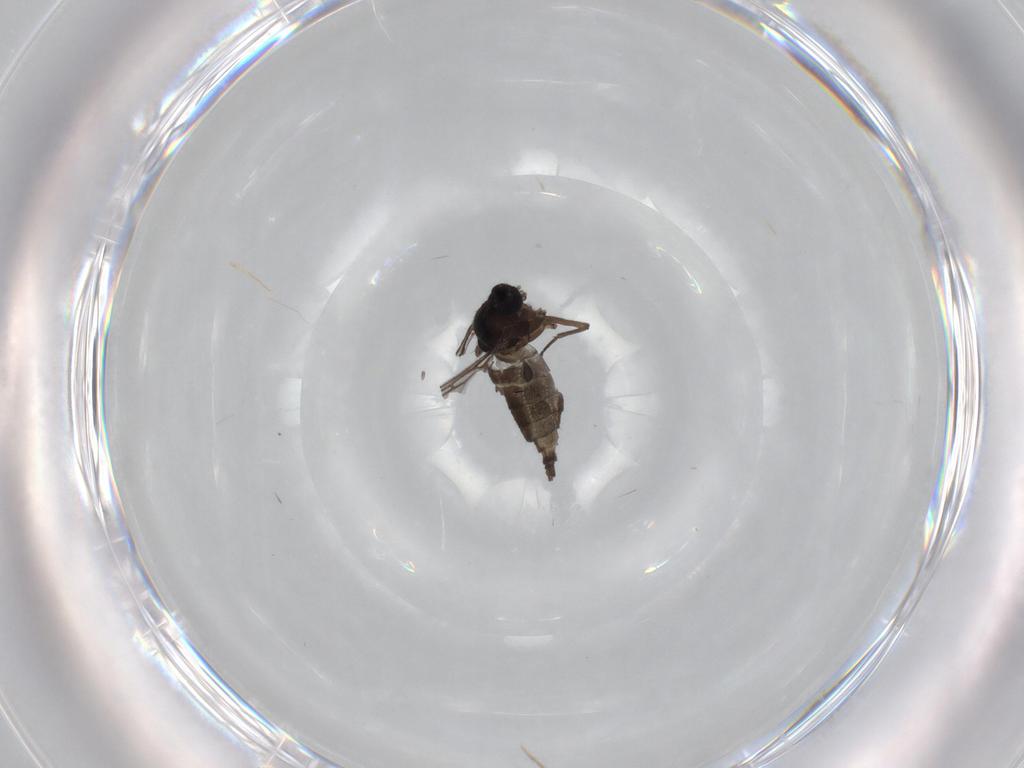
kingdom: Animalia
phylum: Arthropoda
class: Insecta
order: Diptera
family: Sciaridae
